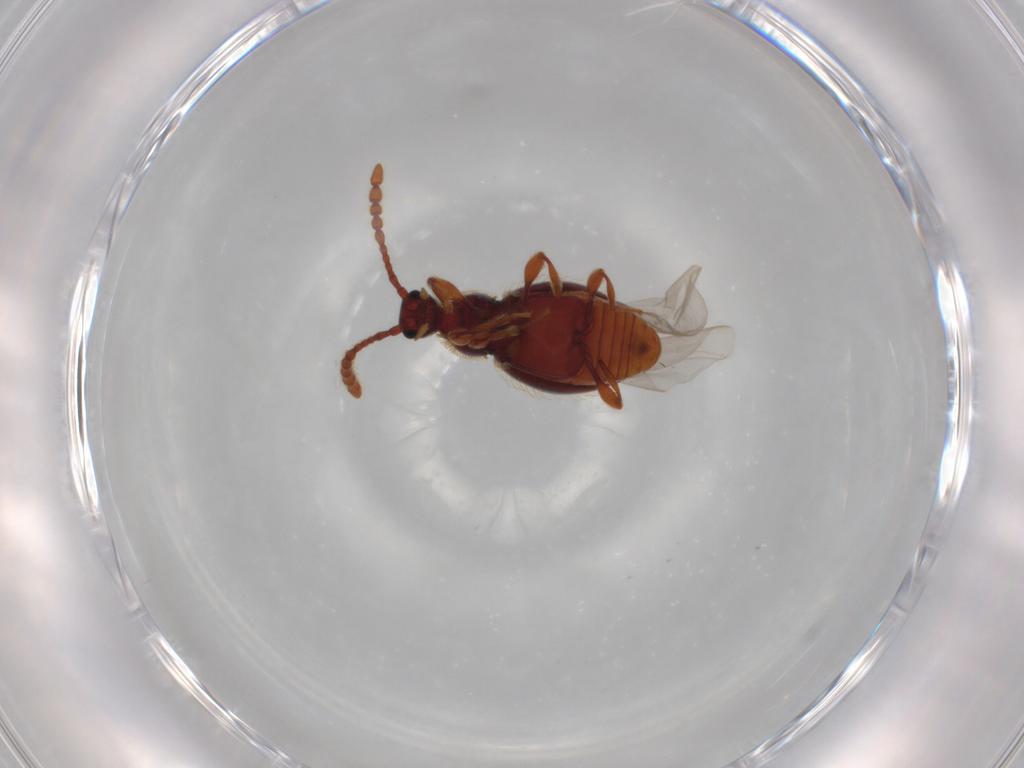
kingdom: Animalia
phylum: Arthropoda
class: Insecta
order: Coleoptera
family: Ptilodactylidae
